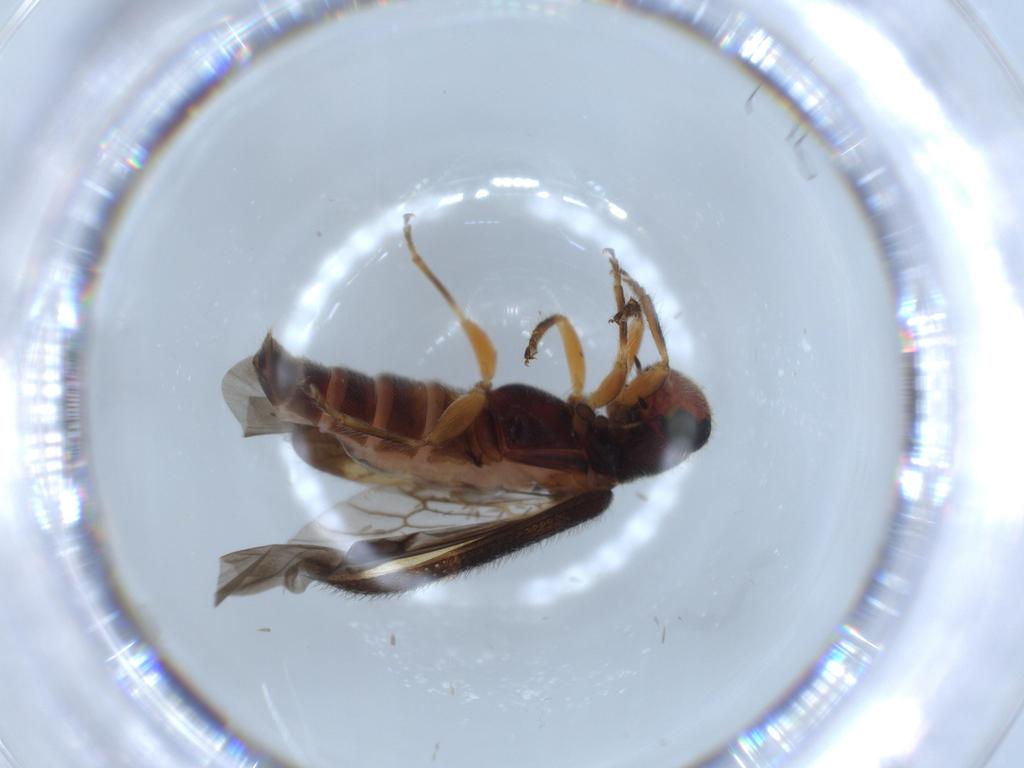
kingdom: Animalia
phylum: Arthropoda
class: Insecta
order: Coleoptera
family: Cleridae
